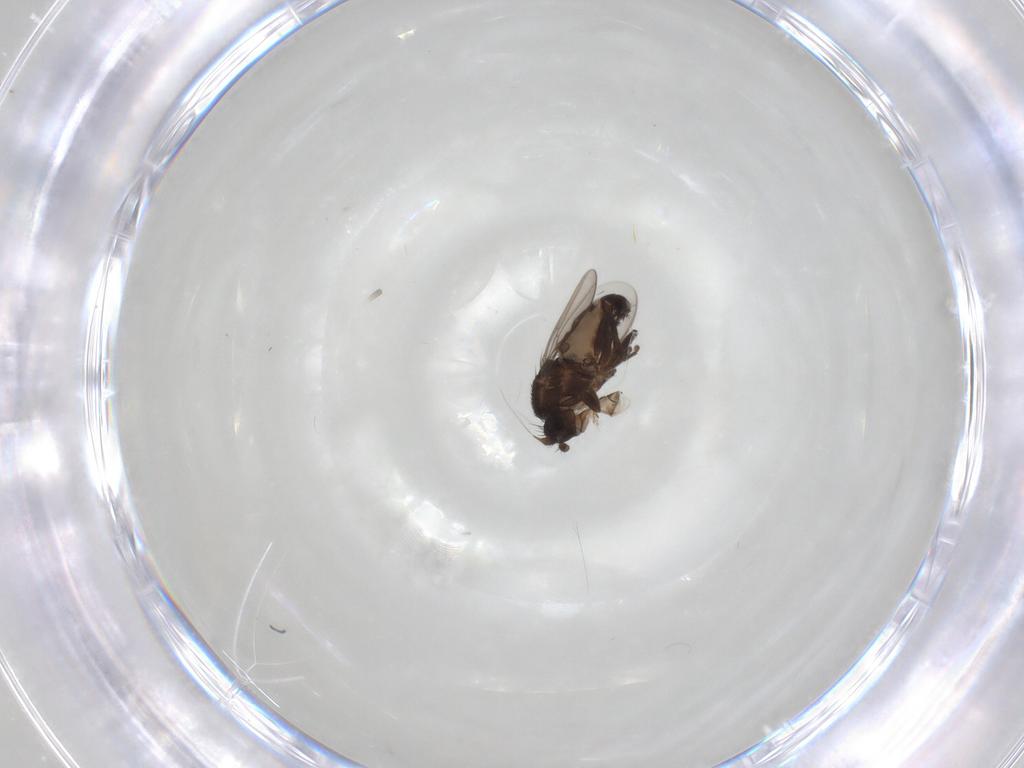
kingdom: Animalia
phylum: Arthropoda
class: Insecta
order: Diptera
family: Sphaeroceridae
